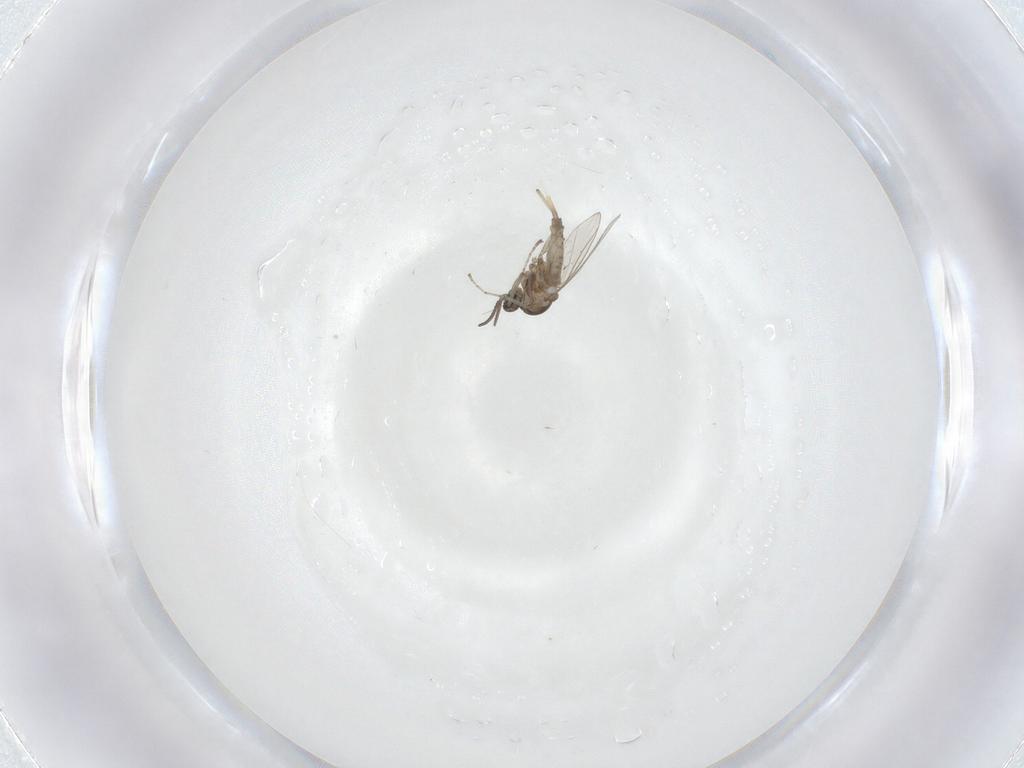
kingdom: Animalia
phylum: Arthropoda
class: Insecta
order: Diptera
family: Cecidomyiidae
